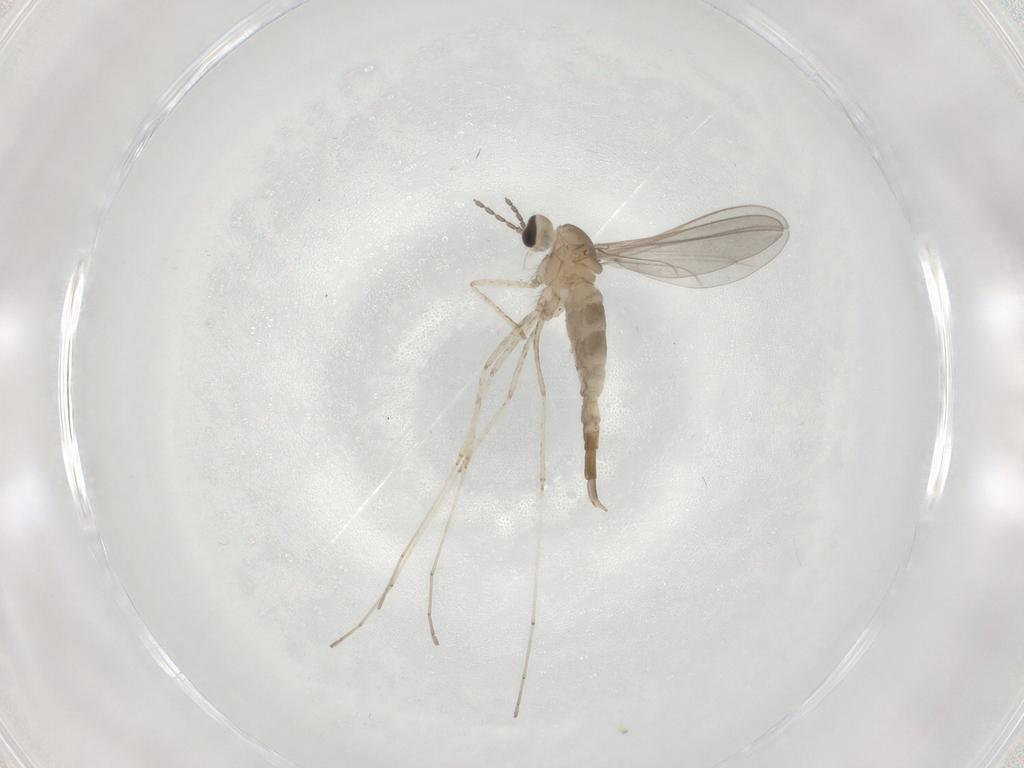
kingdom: Animalia
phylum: Arthropoda
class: Insecta
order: Diptera
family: Cecidomyiidae
